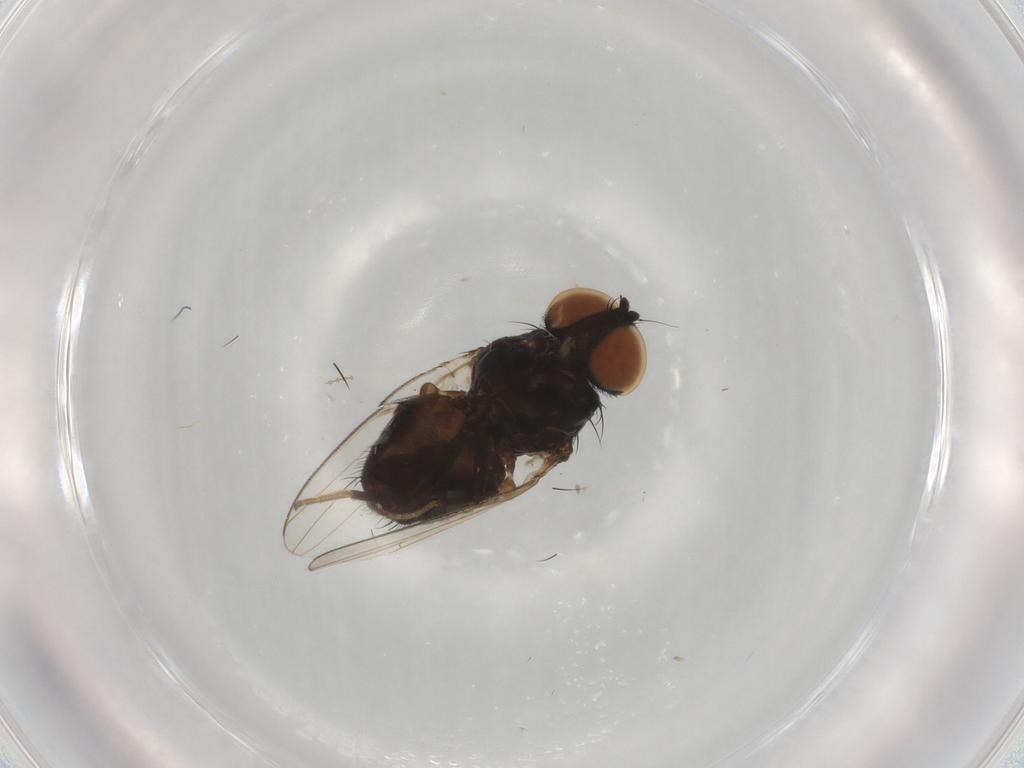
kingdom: Animalia
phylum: Arthropoda
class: Insecta
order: Diptera
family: Milichiidae
